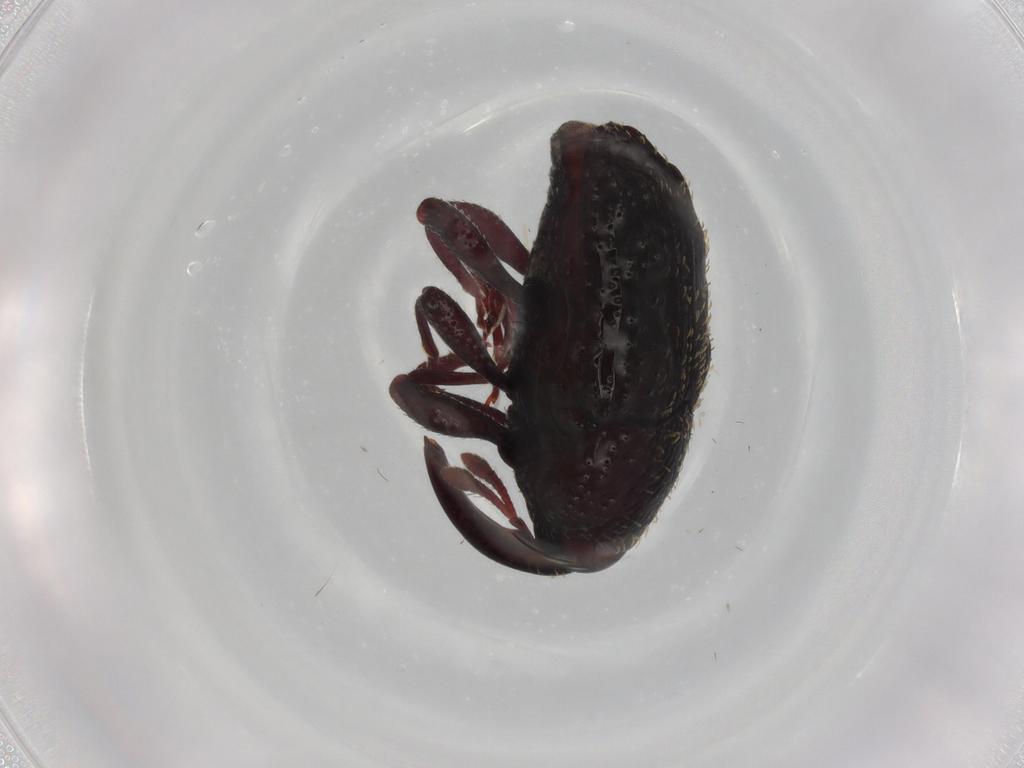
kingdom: Animalia
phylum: Arthropoda
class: Insecta
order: Coleoptera
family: Curculionidae
